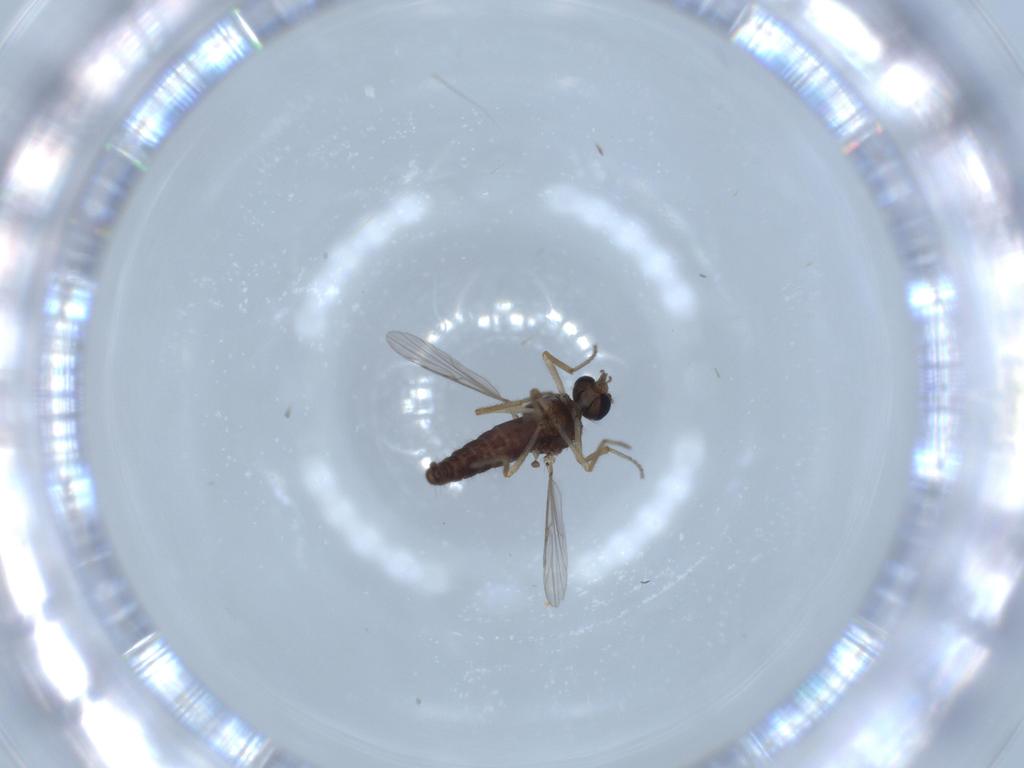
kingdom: Animalia
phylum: Arthropoda
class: Insecta
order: Diptera
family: Ceratopogonidae
